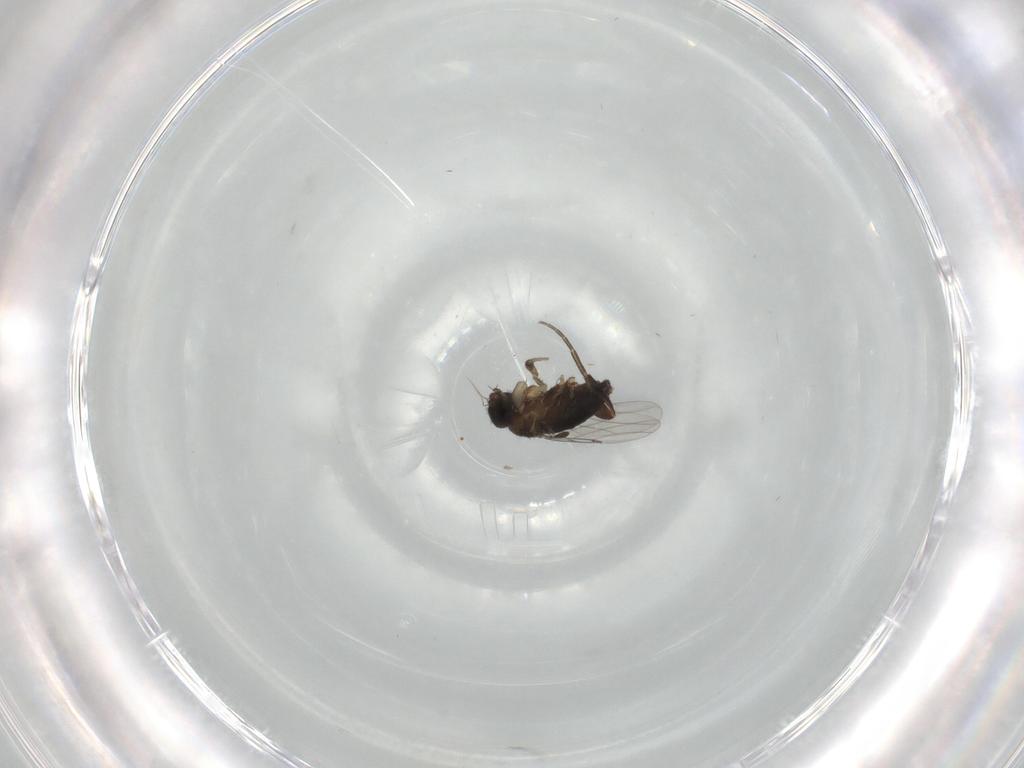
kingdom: Animalia
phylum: Arthropoda
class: Insecta
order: Diptera
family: Phoridae
